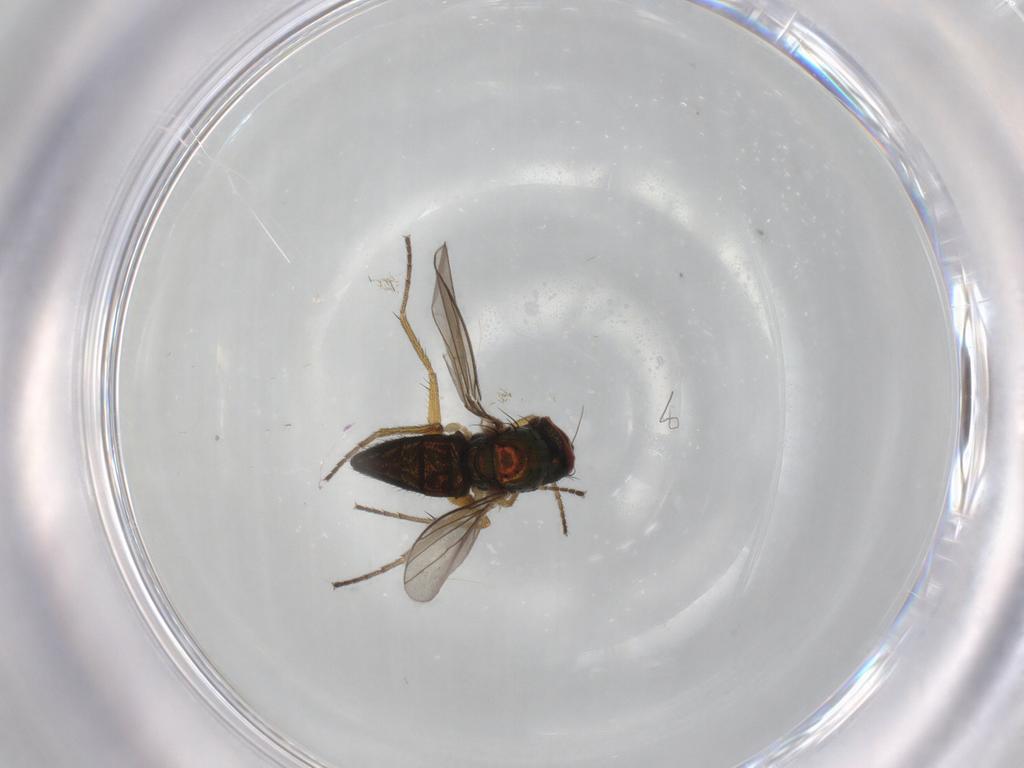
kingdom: Animalia
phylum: Arthropoda
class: Insecta
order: Diptera
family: Dolichopodidae
